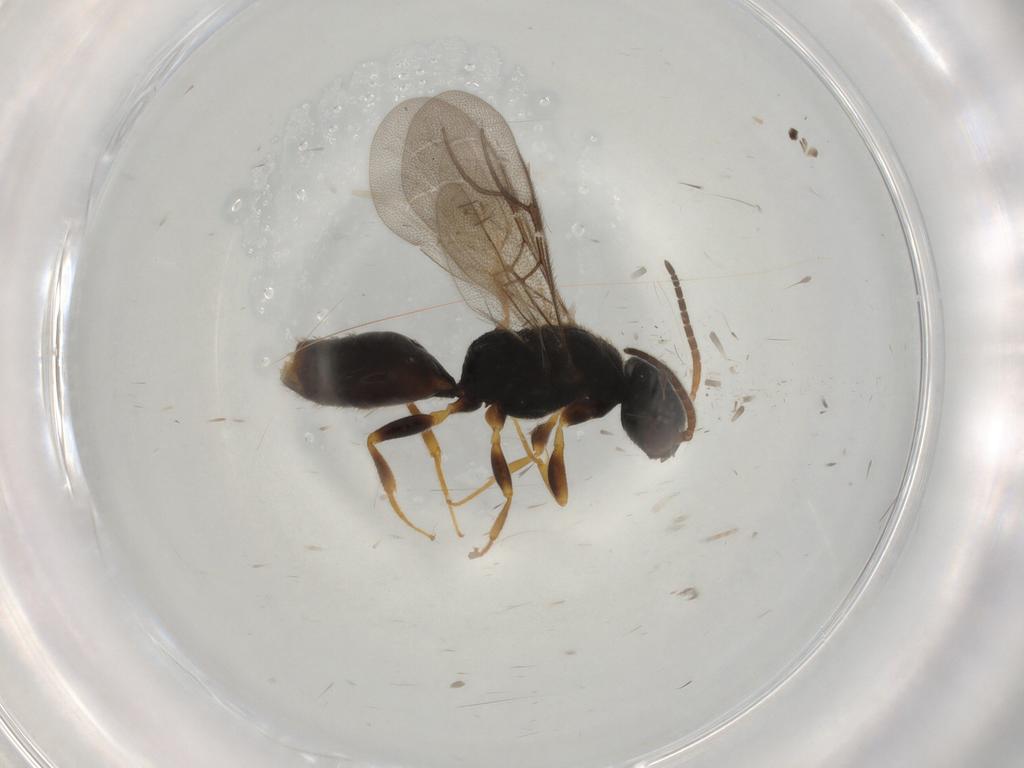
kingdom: Animalia
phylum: Arthropoda
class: Insecta
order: Hymenoptera
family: Bethylidae
